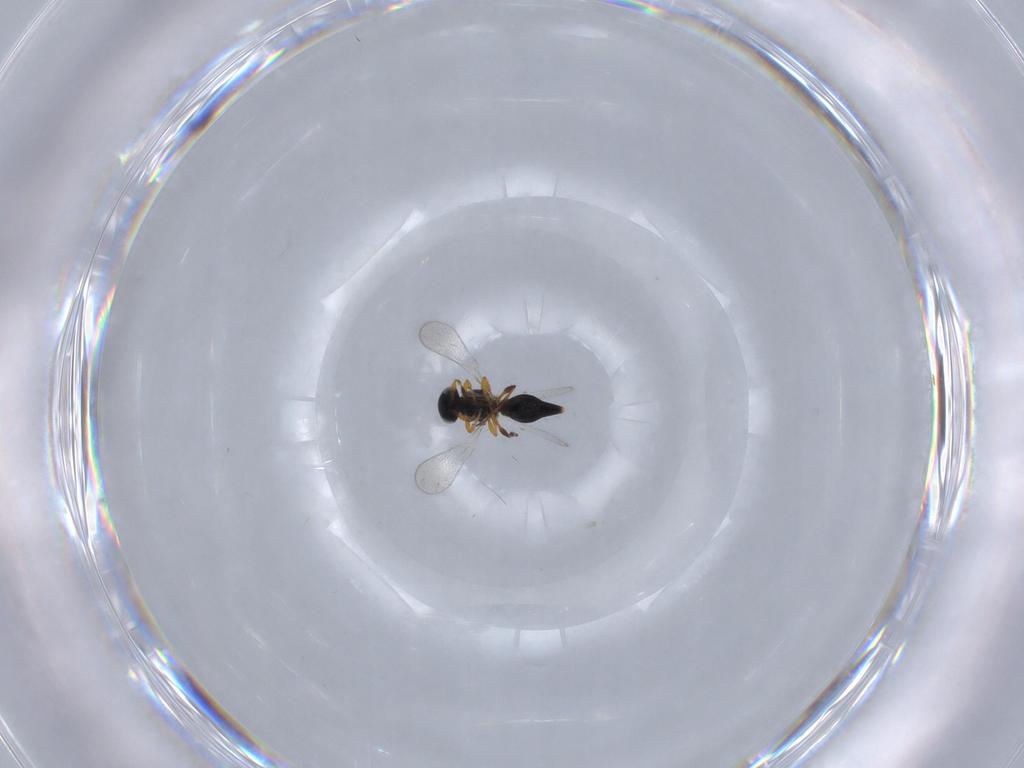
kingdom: Animalia
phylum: Arthropoda
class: Insecta
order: Hymenoptera
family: Platygastridae
